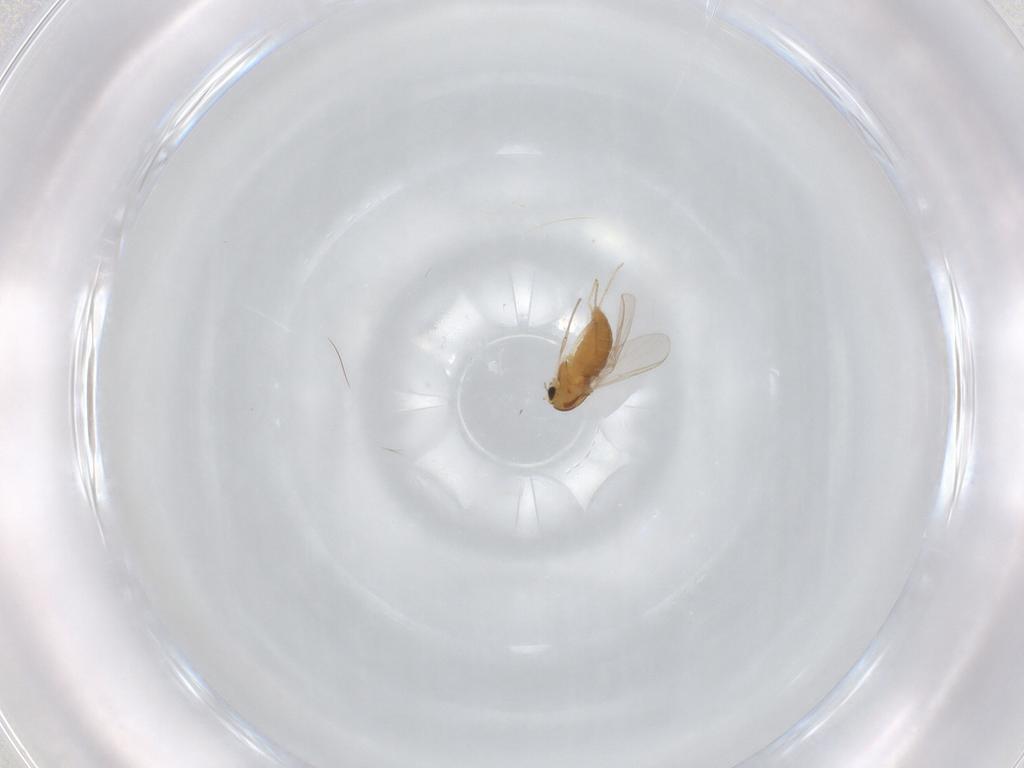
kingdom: Animalia
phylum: Arthropoda
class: Insecta
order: Diptera
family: Chironomidae
